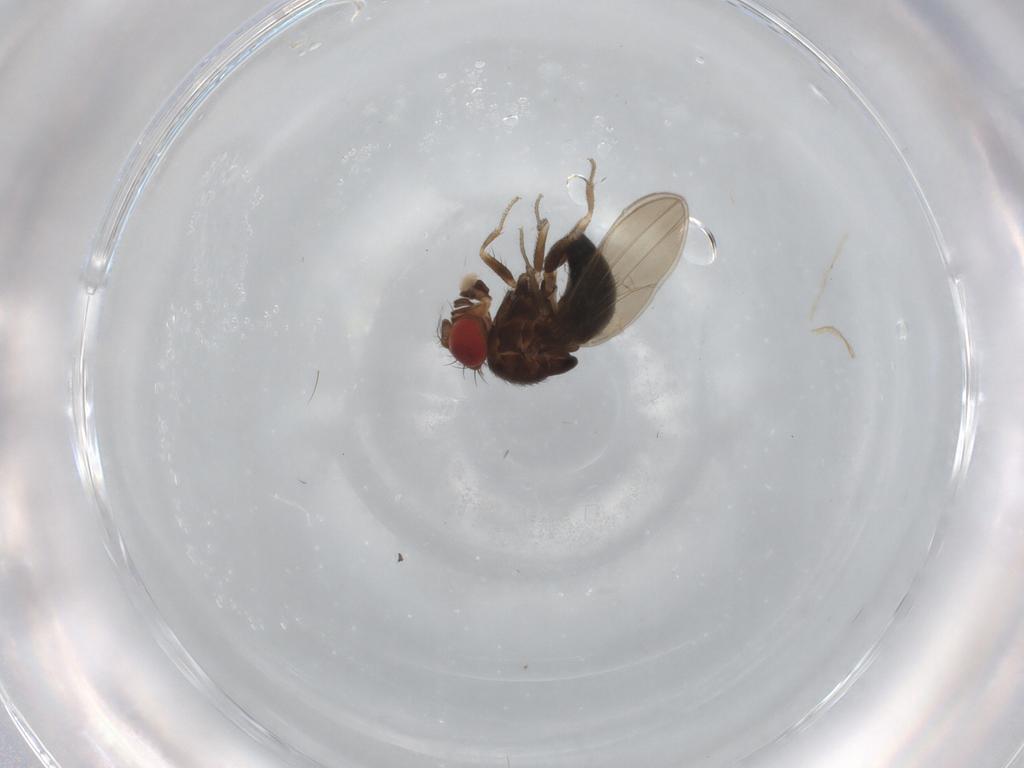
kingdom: Animalia
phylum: Arthropoda
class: Insecta
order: Diptera
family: Drosophilidae
